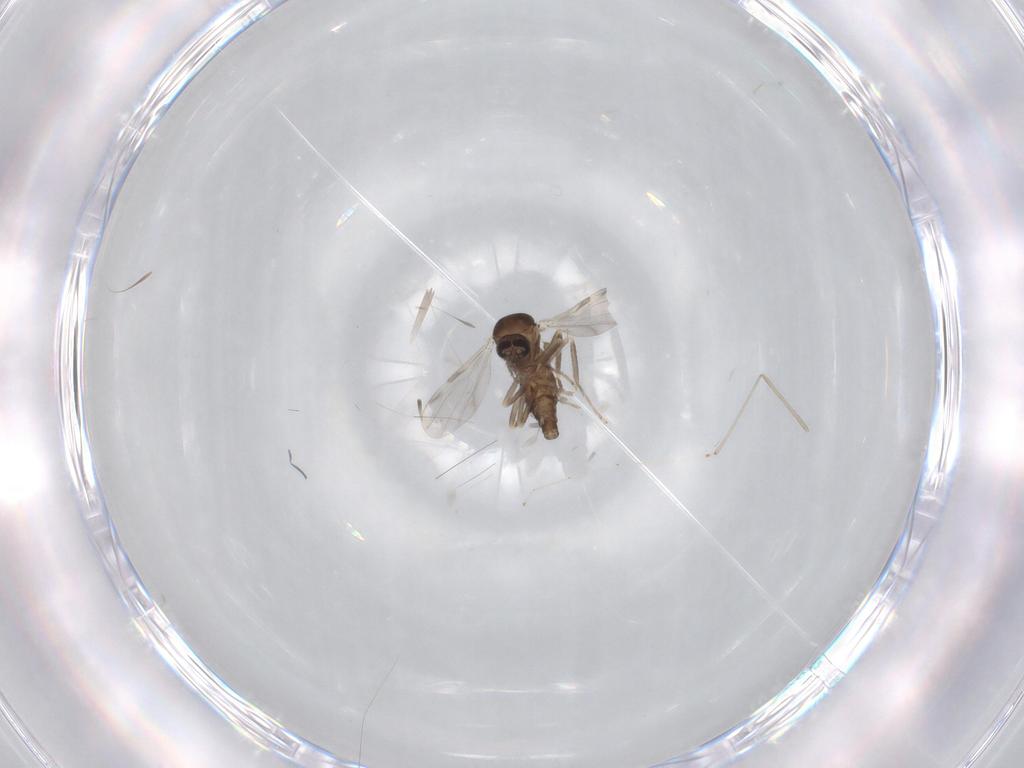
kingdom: Animalia
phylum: Arthropoda
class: Insecta
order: Diptera
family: Ceratopogonidae
